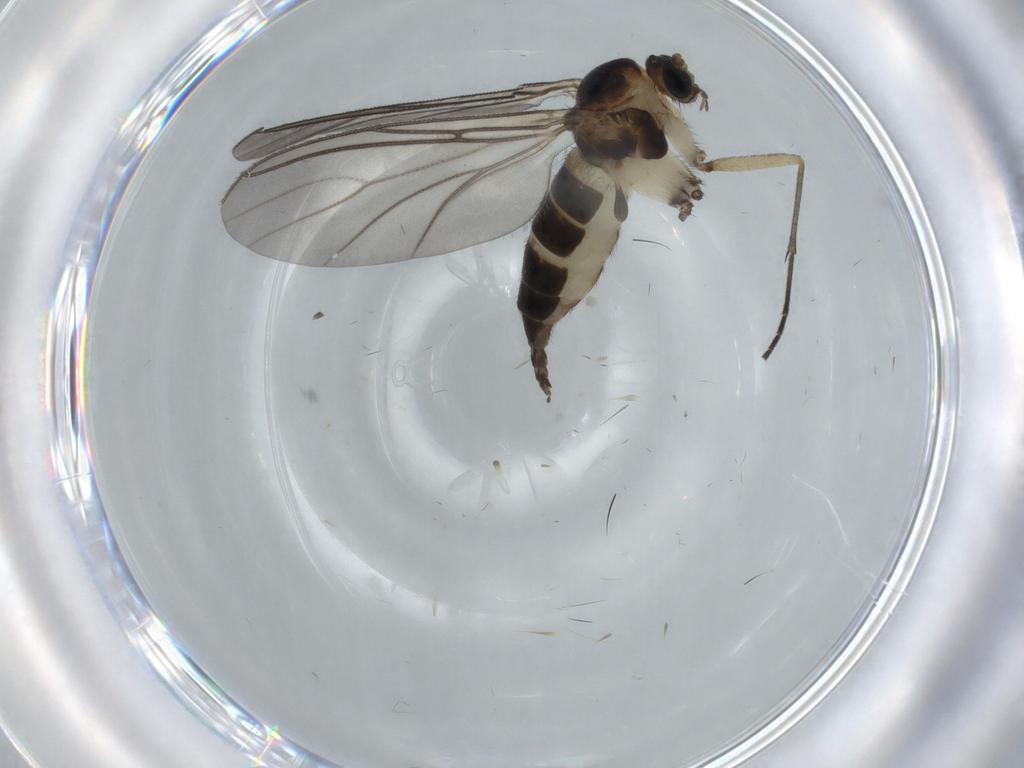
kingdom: Animalia
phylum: Arthropoda
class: Insecta
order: Diptera
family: Sciaridae
